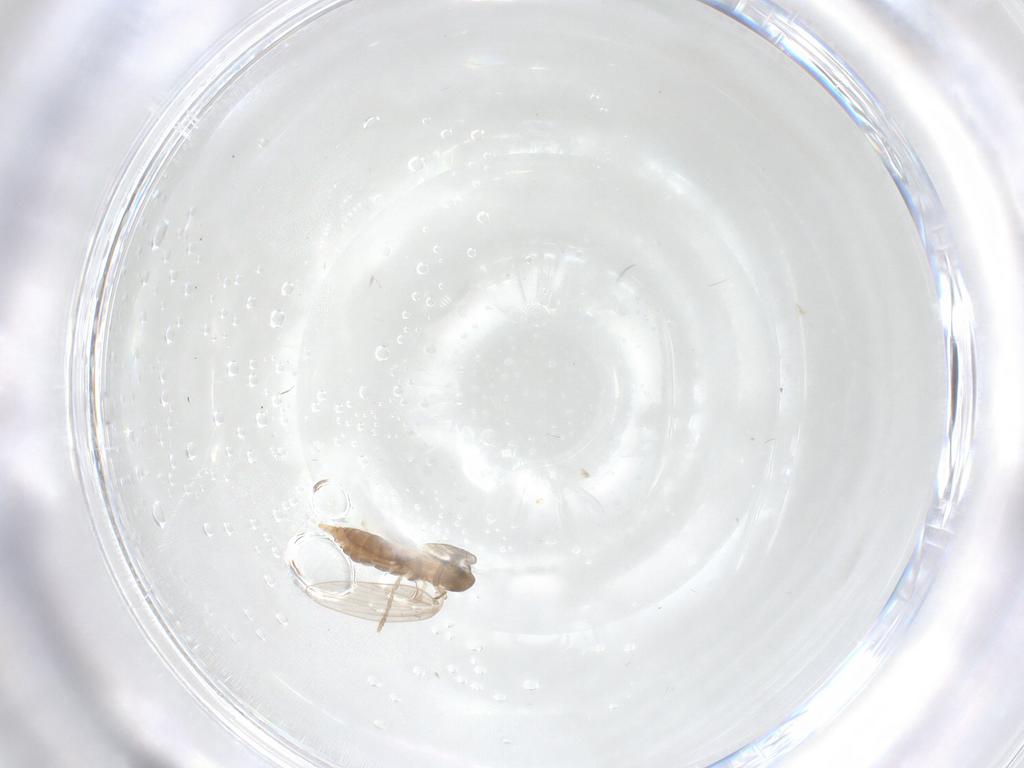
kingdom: Animalia
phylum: Arthropoda
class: Insecta
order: Diptera
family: Psychodidae
